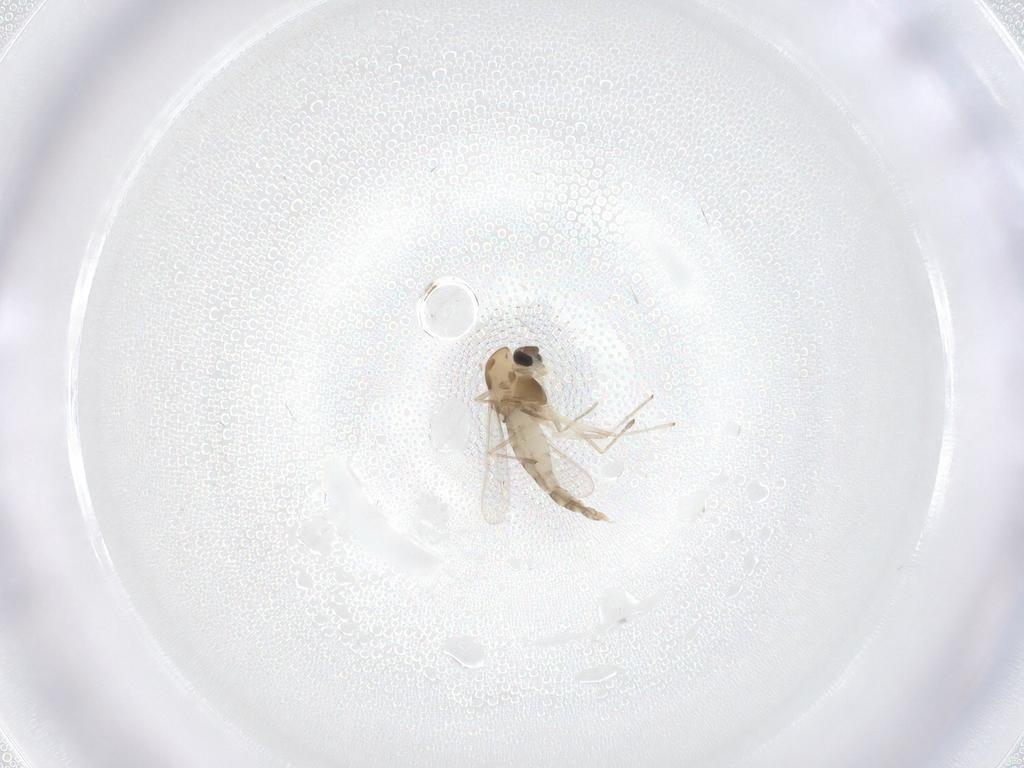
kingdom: Animalia
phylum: Arthropoda
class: Insecta
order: Diptera
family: Chironomidae
